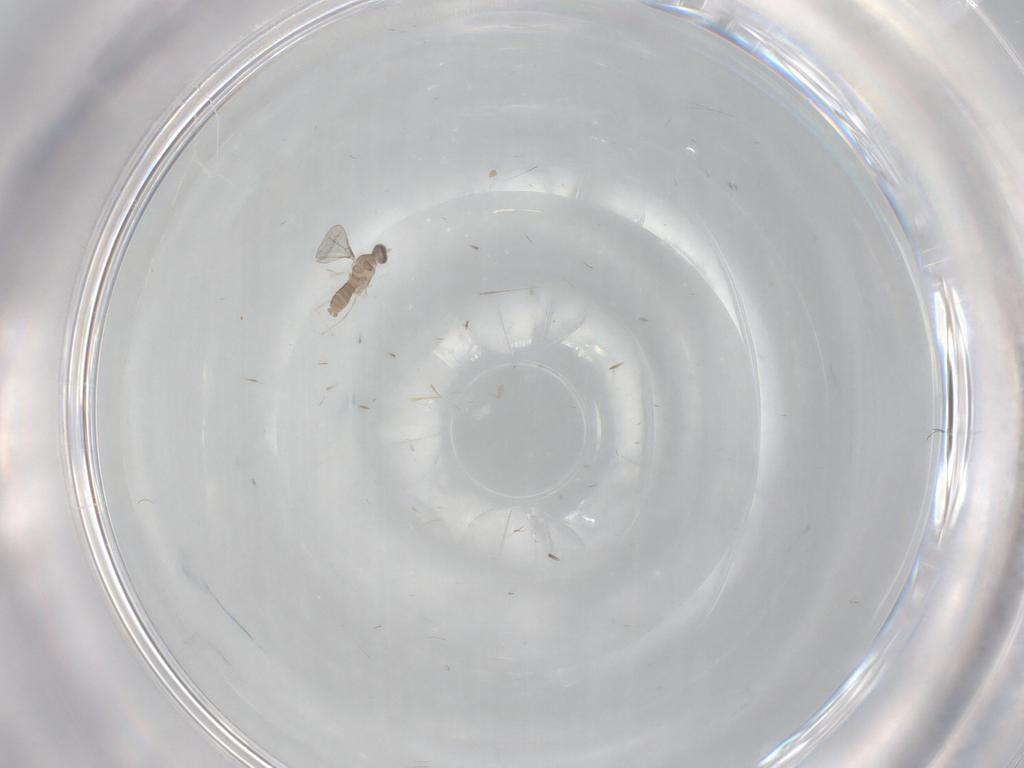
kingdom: Animalia
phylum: Arthropoda
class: Insecta
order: Diptera
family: Cecidomyiidae
